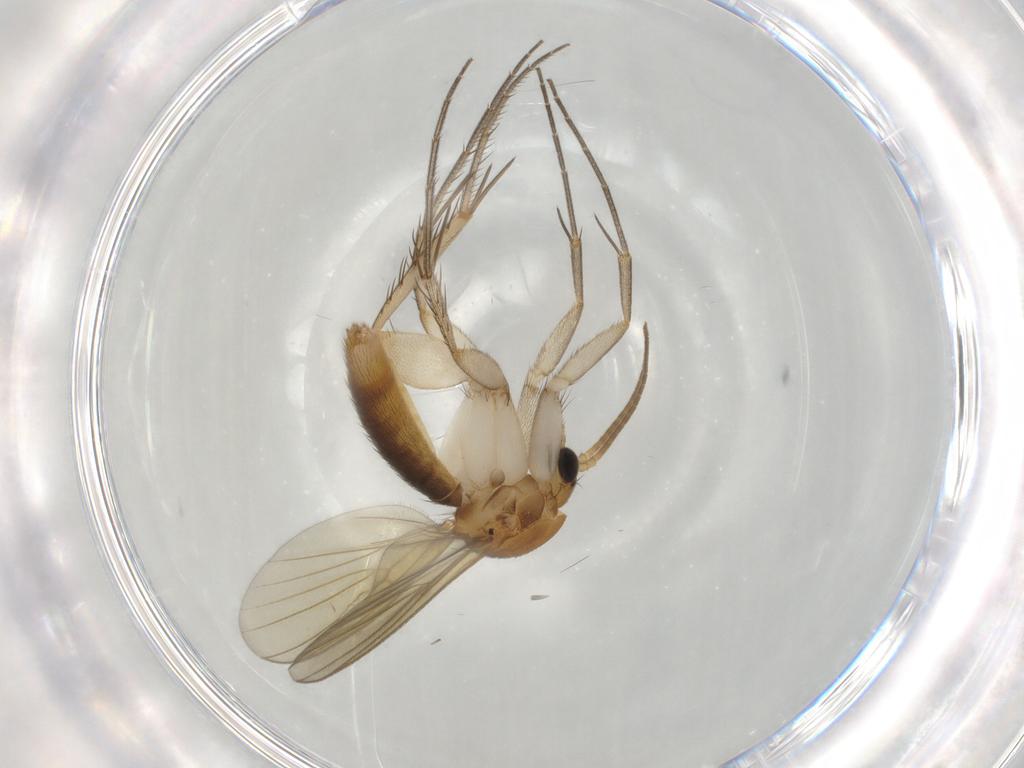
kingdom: Animalia
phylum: Arthropoda
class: Insecta
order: Diptera
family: Mycetophilidae
